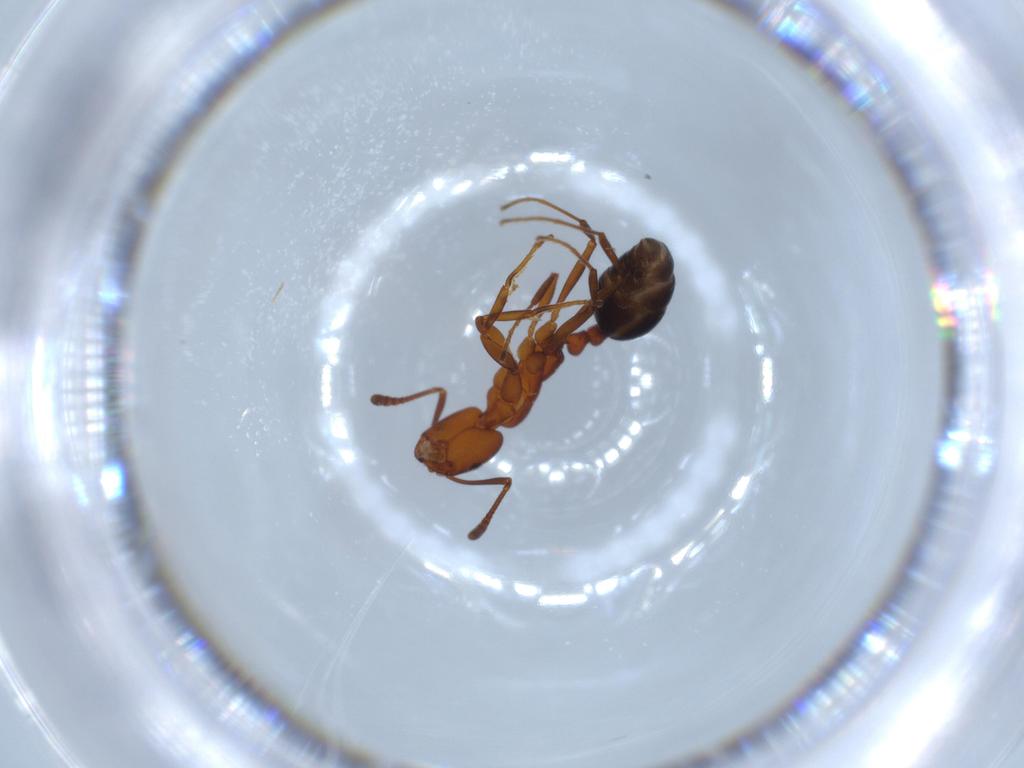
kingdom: Animalia
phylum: Arthropoda
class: Insecta
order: Hymenoptera
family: Formicidae
